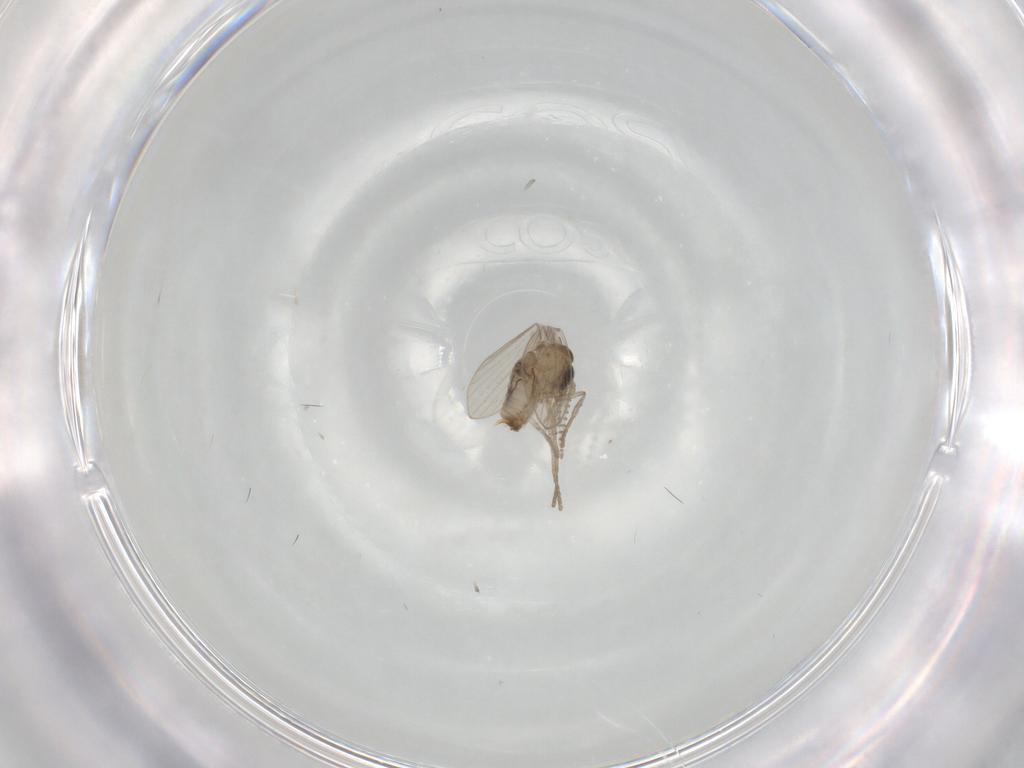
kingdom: Animalia
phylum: Arthropoda
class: Insecta
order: Diptera
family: Psychodidae
